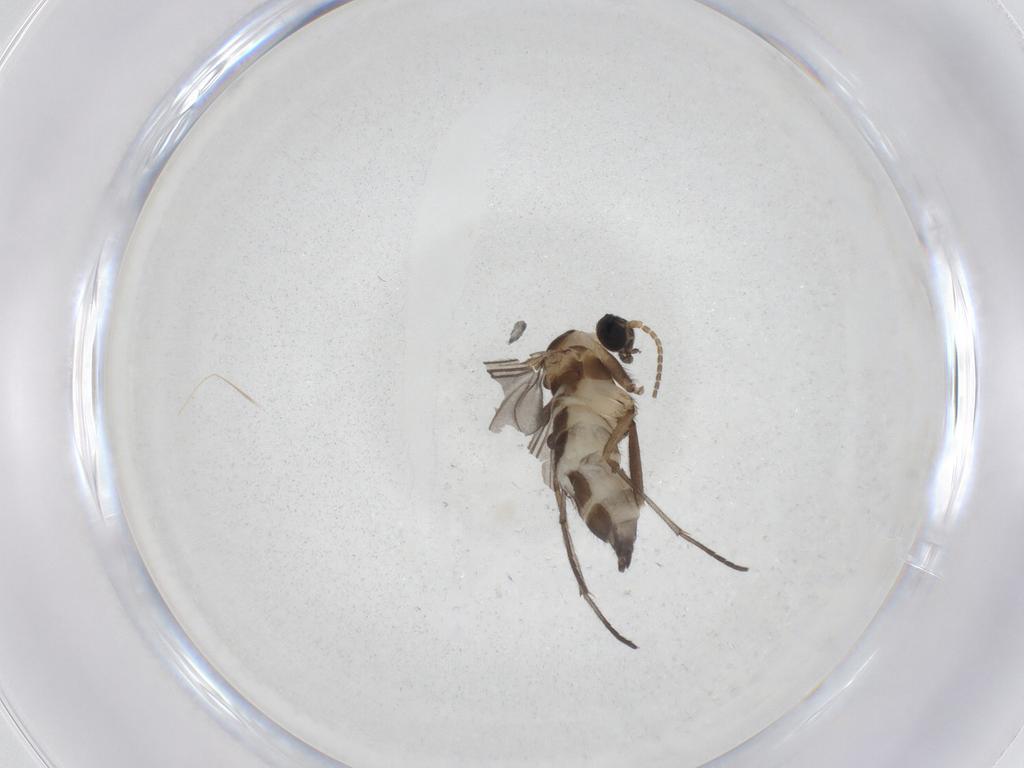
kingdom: Animalia
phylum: Arthropoda
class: Insecta
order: Diptera
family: Sciaridae
